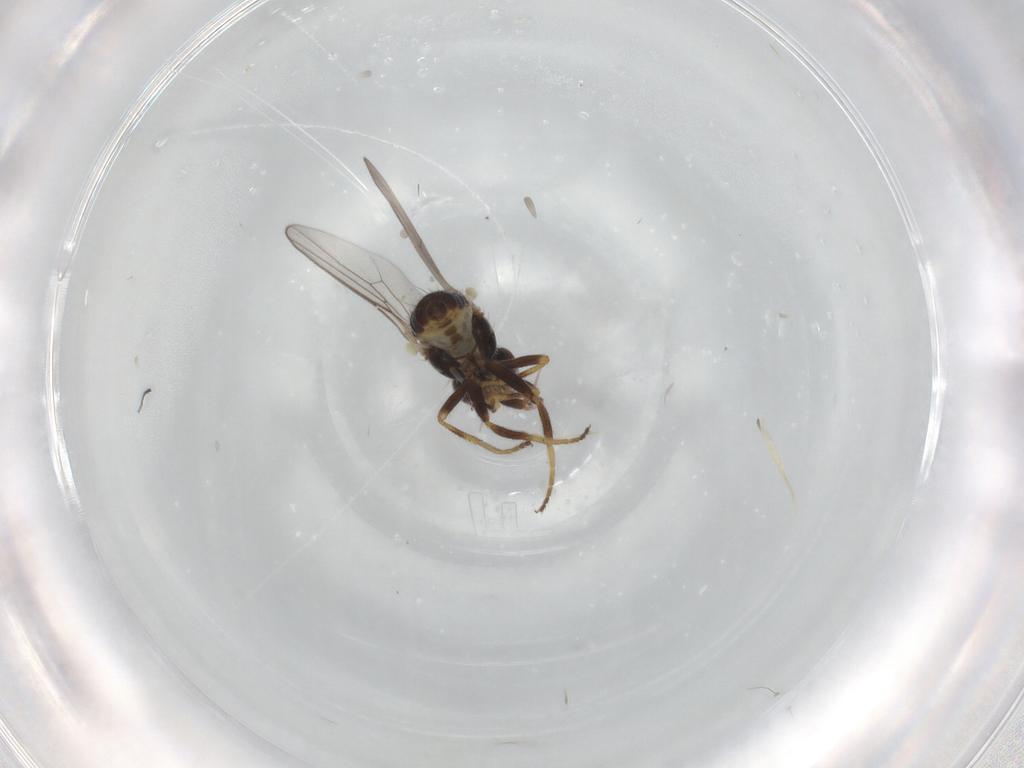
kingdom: Animalia
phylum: Arthropoda
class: Insecta
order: Diptera
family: Chloropidae
